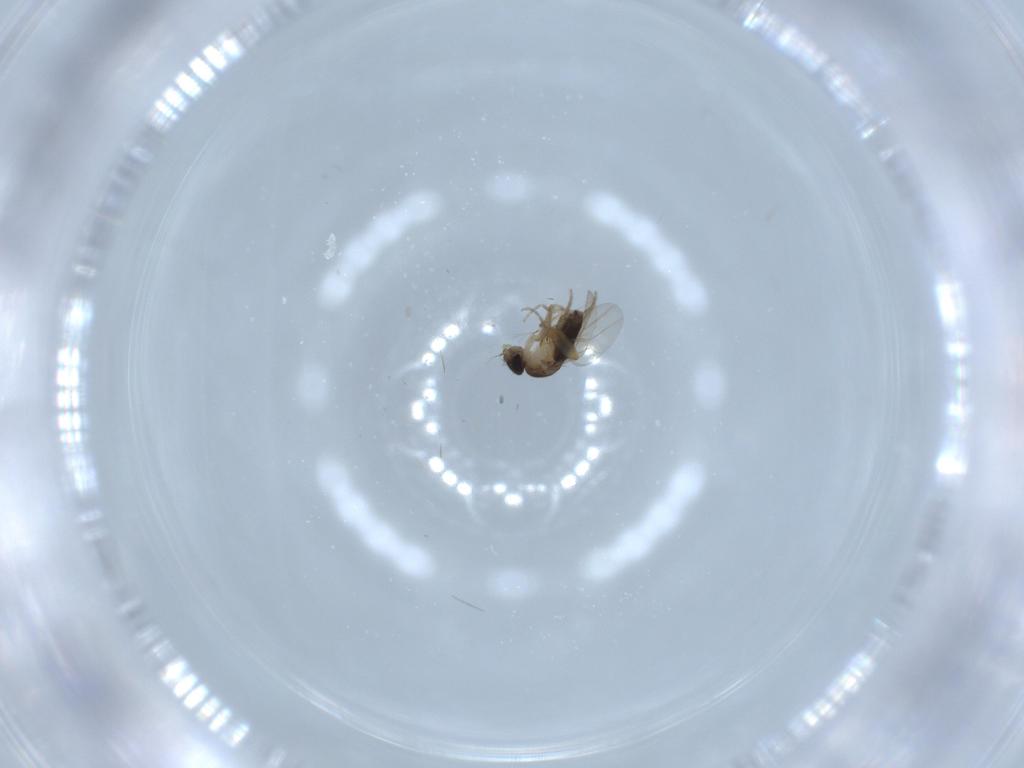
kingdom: Animalia
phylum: Arthropoda
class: Insecta
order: Diptera
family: Phoridae
